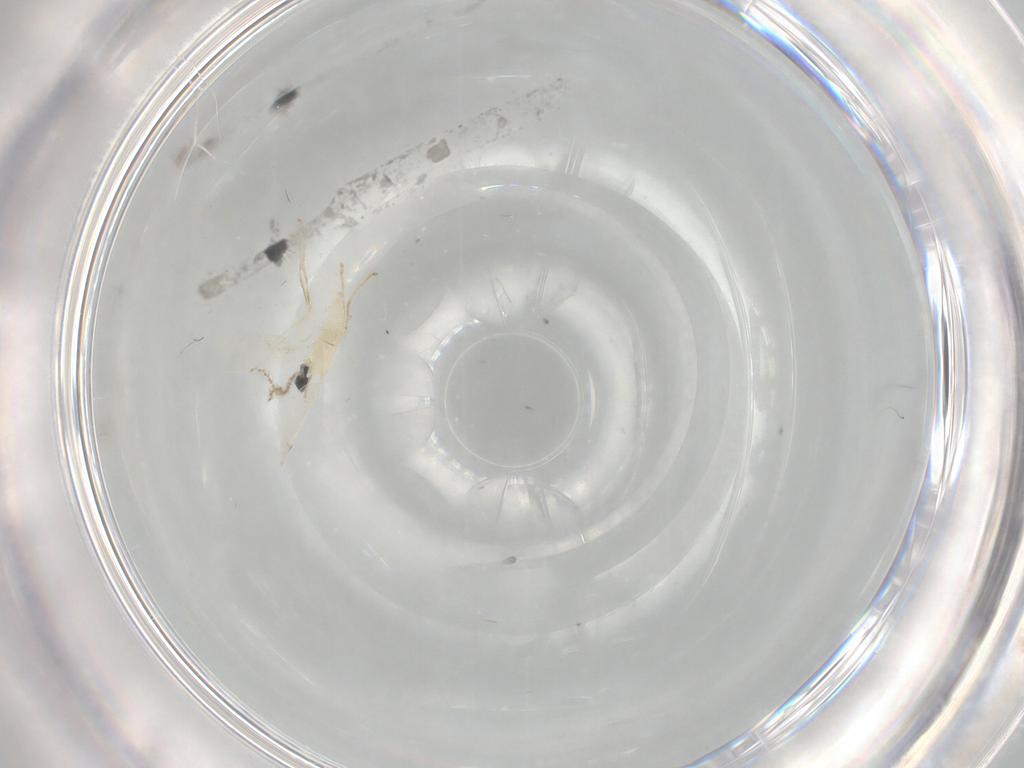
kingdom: Animalia
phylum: Arthropoda
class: Insecta
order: Diptera
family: Cecidomyiidae
